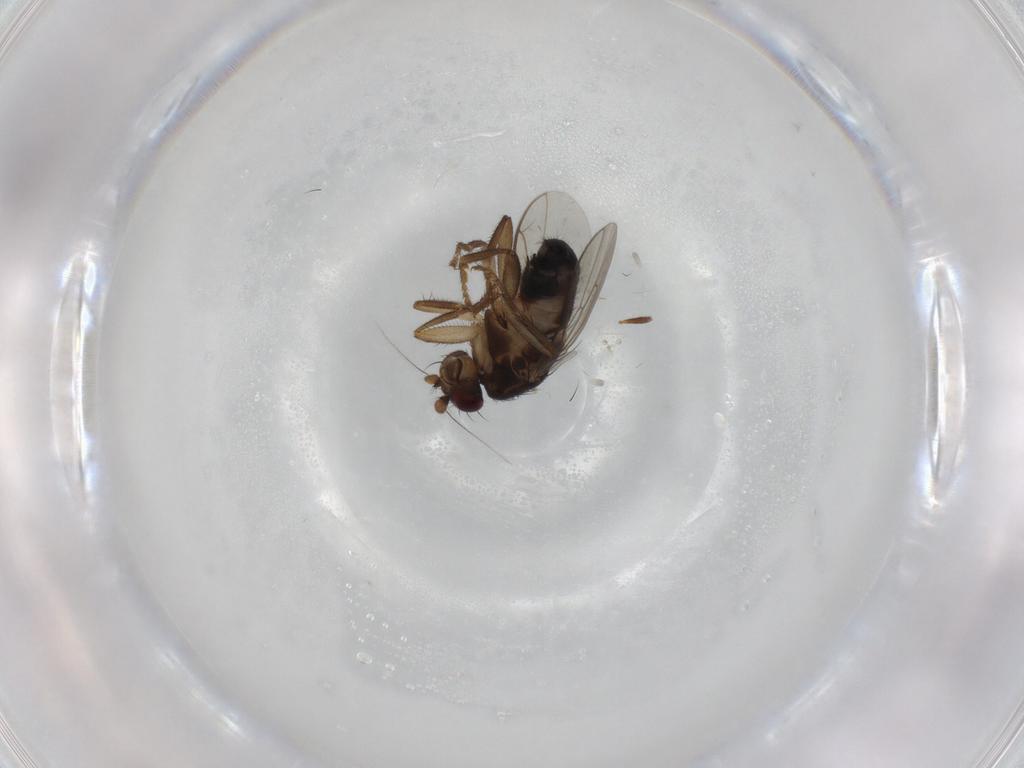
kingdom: Animalia
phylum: Arthropoda
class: Insecta
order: Diptera
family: Sphaeroceridae
